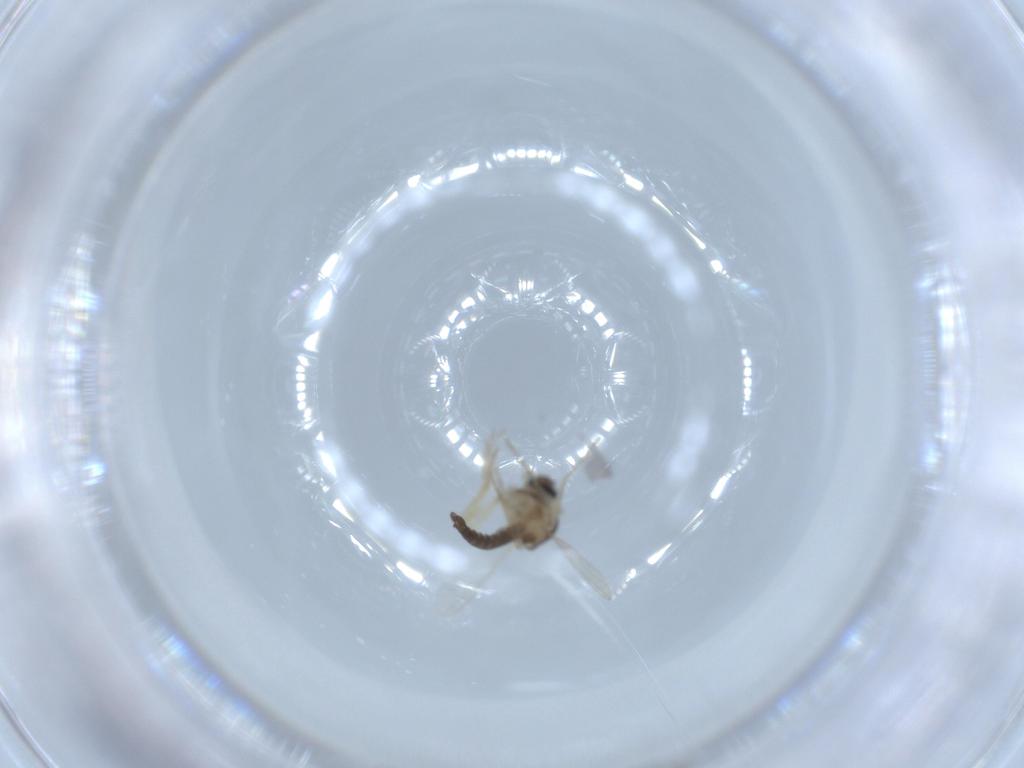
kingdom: Animalia
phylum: Arthropoda
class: Insecta
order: Diptera
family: Ceratopogonidae
